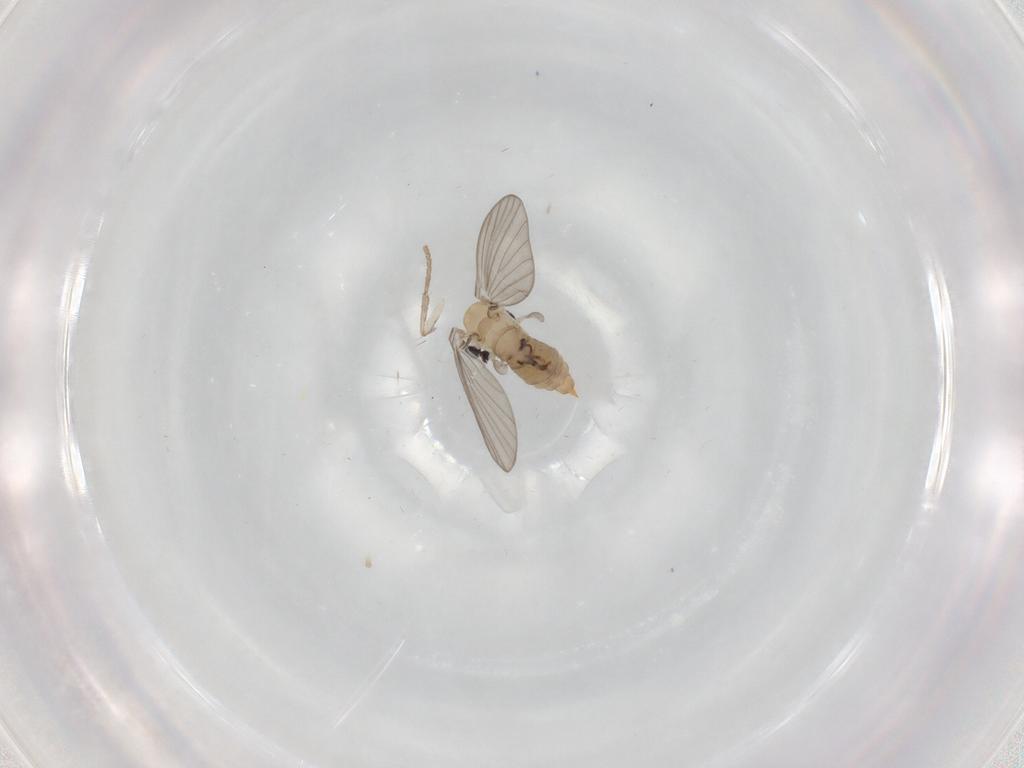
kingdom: Animalia
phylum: Arthropoda
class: Insecta
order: Diptera
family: Psychodidae
